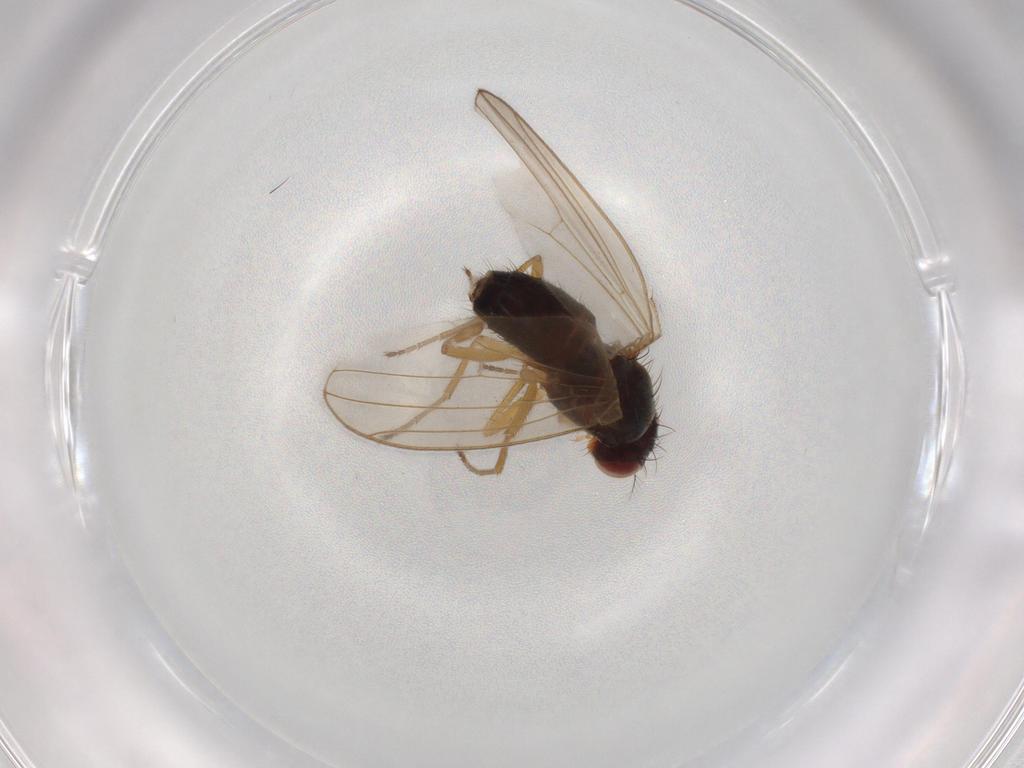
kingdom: Animalia
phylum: Arthropoda
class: Insecta
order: Diptera
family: Drosophilidae
